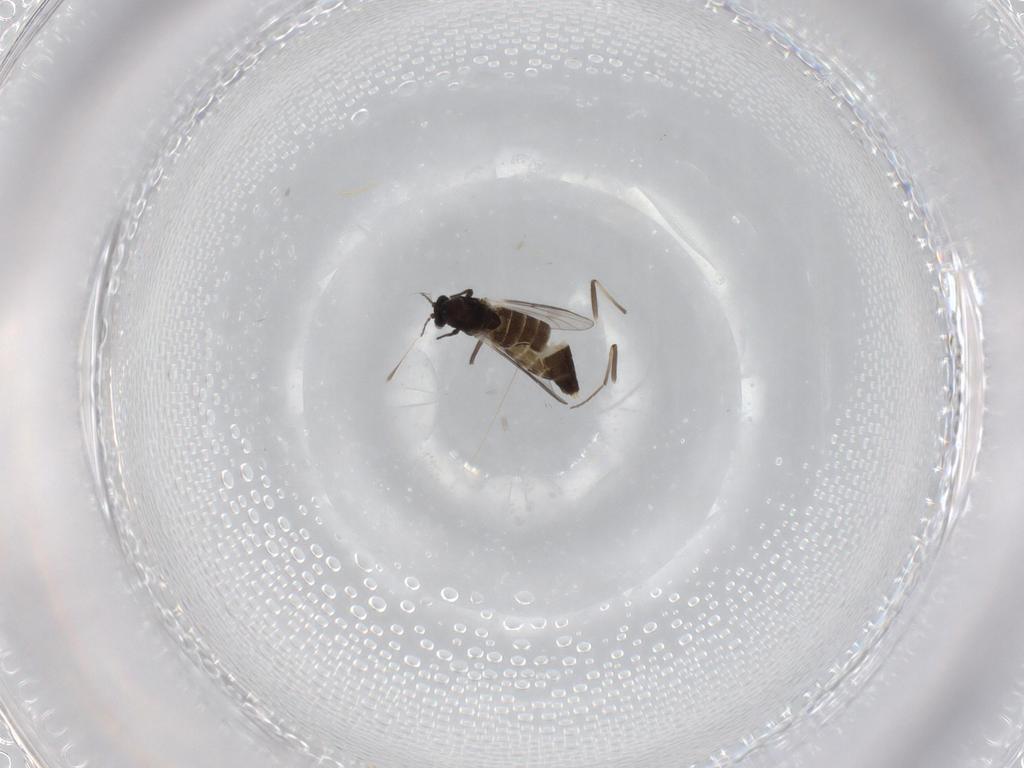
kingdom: Animalia
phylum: Arthropoda
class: Insecta
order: Diptera
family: Chironomidae
